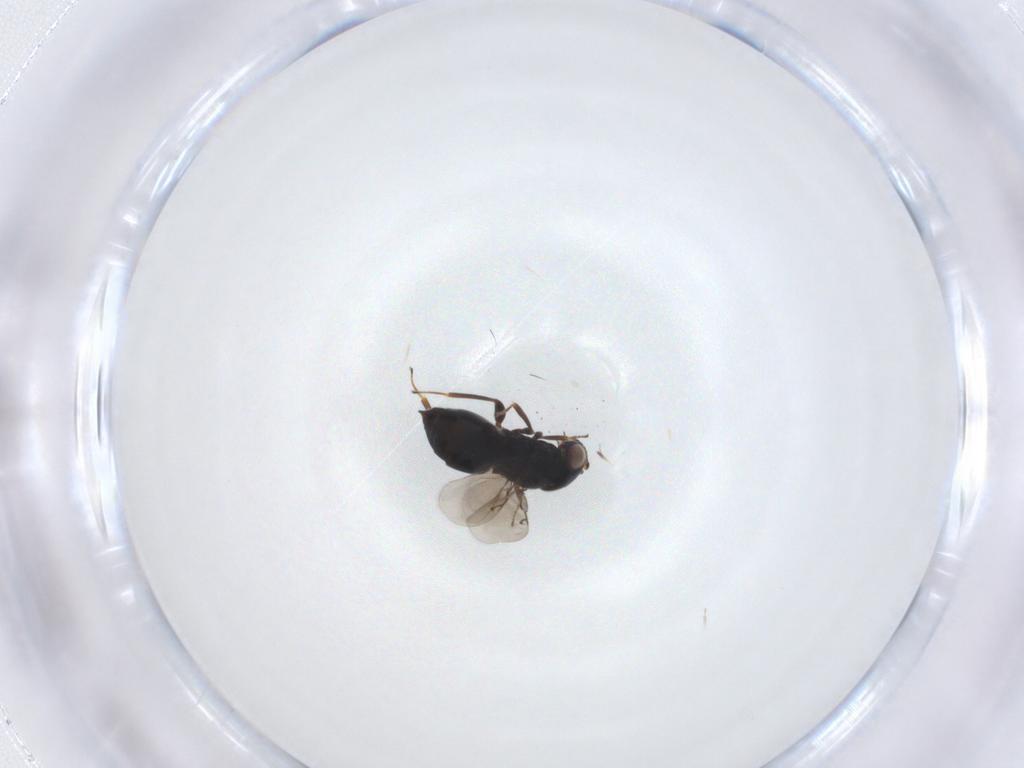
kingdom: Animalia
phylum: Arthropoda
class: Insecta
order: Hymenoptera
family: Eunotidae
